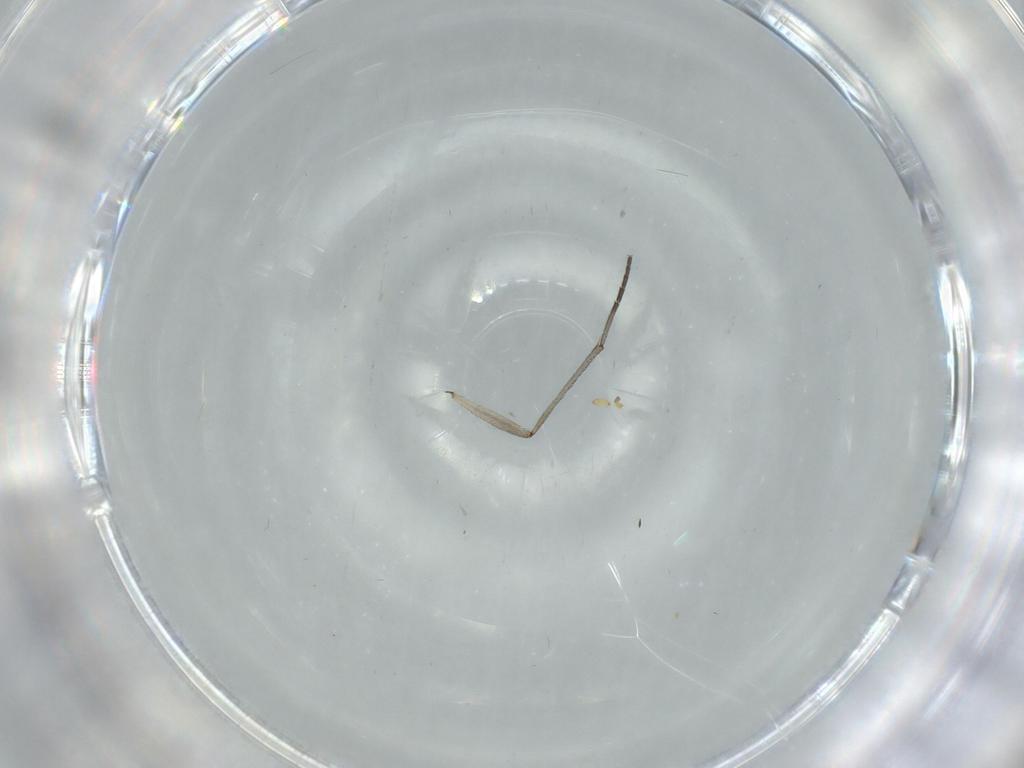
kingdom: Animalia
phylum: Arthropoda
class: Insecta
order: Diptera
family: Sciaridae
